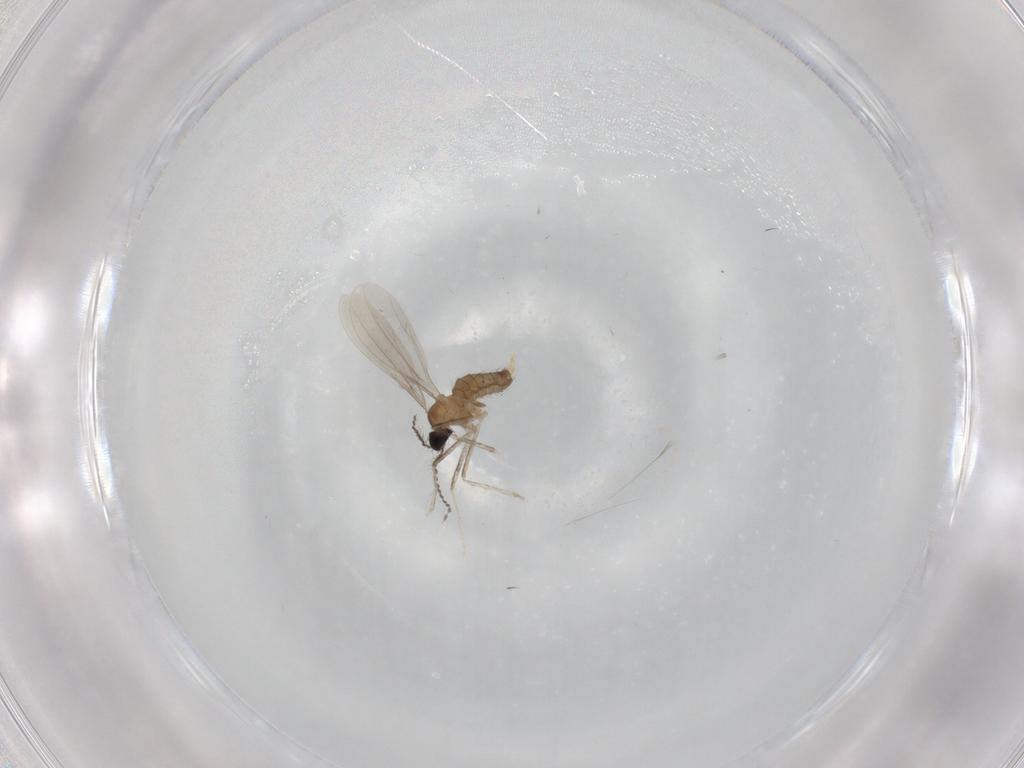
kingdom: Animalia
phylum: Arthropoda
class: Insecta
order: Diptera
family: Cecidomyiidae
